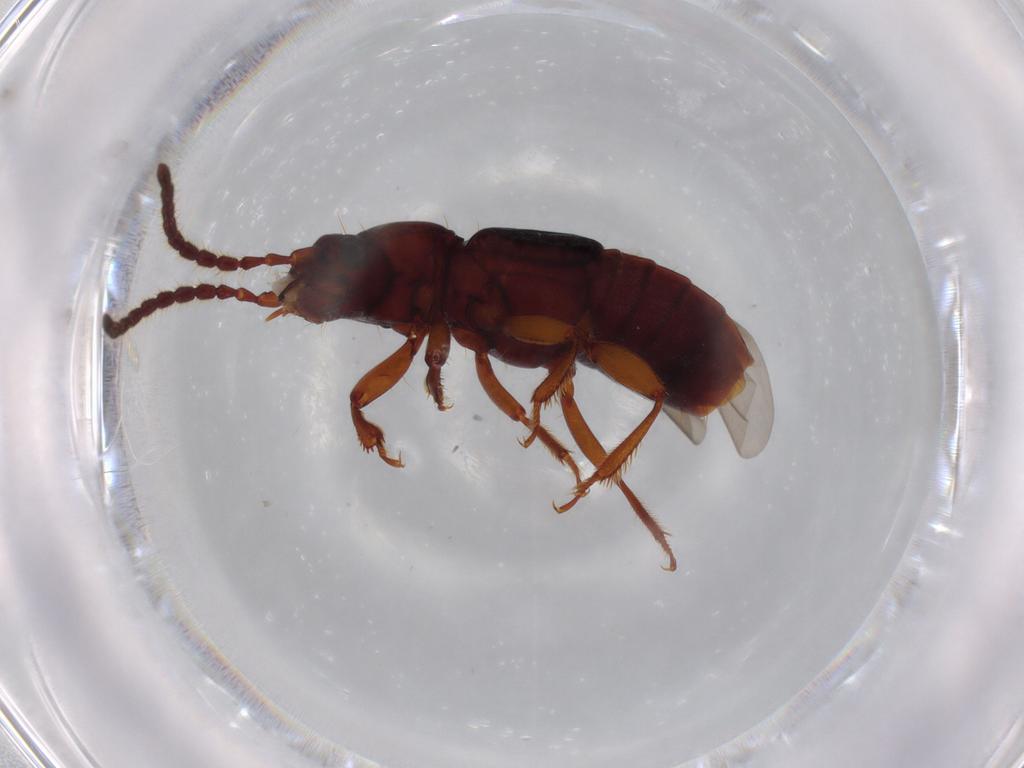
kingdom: Animalia
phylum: Arthropoda
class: Insecta
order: Coleoptera
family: Staphylinidae
